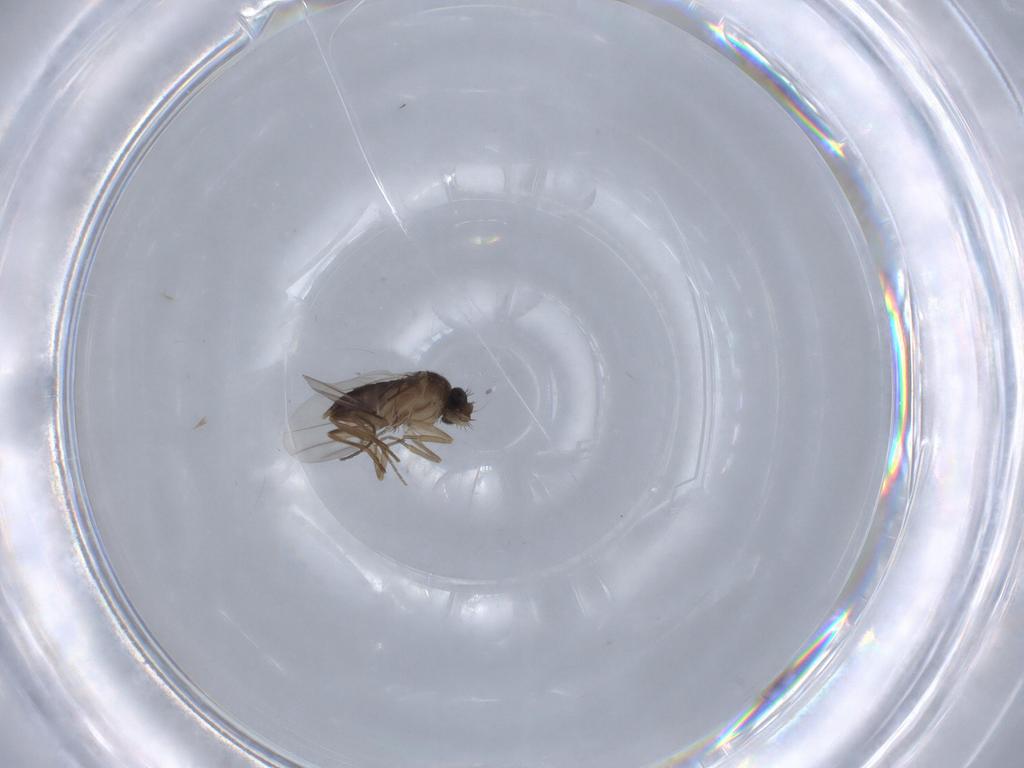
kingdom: Animalia
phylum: Arthropoda
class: Insecta
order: Diptera
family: Phoridae
